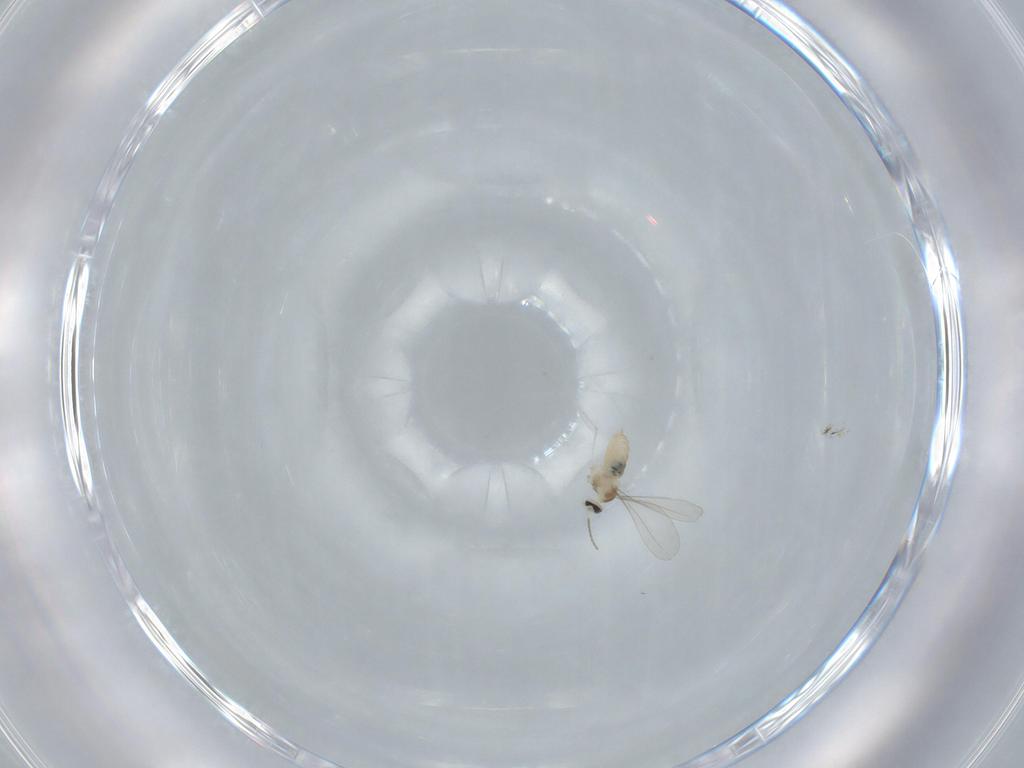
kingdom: Animalia
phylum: Arthropoda
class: Insecta
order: Diptera
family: Cecidomyiidae
